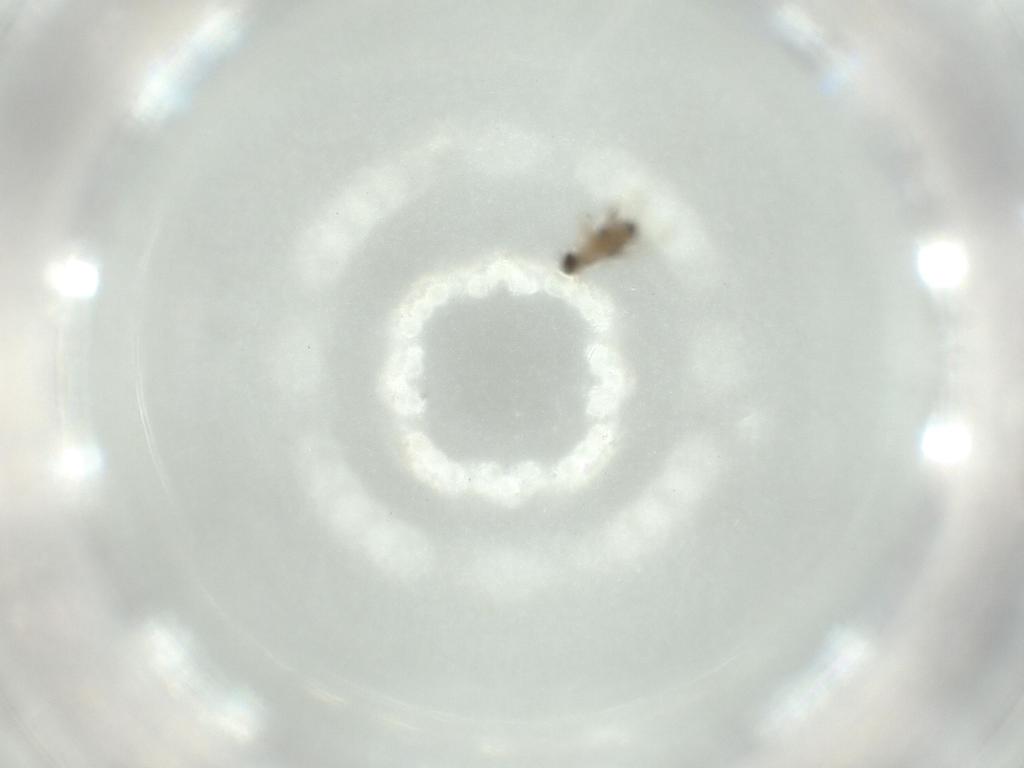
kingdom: Animalia
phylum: Arthropoda
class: Insecta
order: Diptera
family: Phoridae
